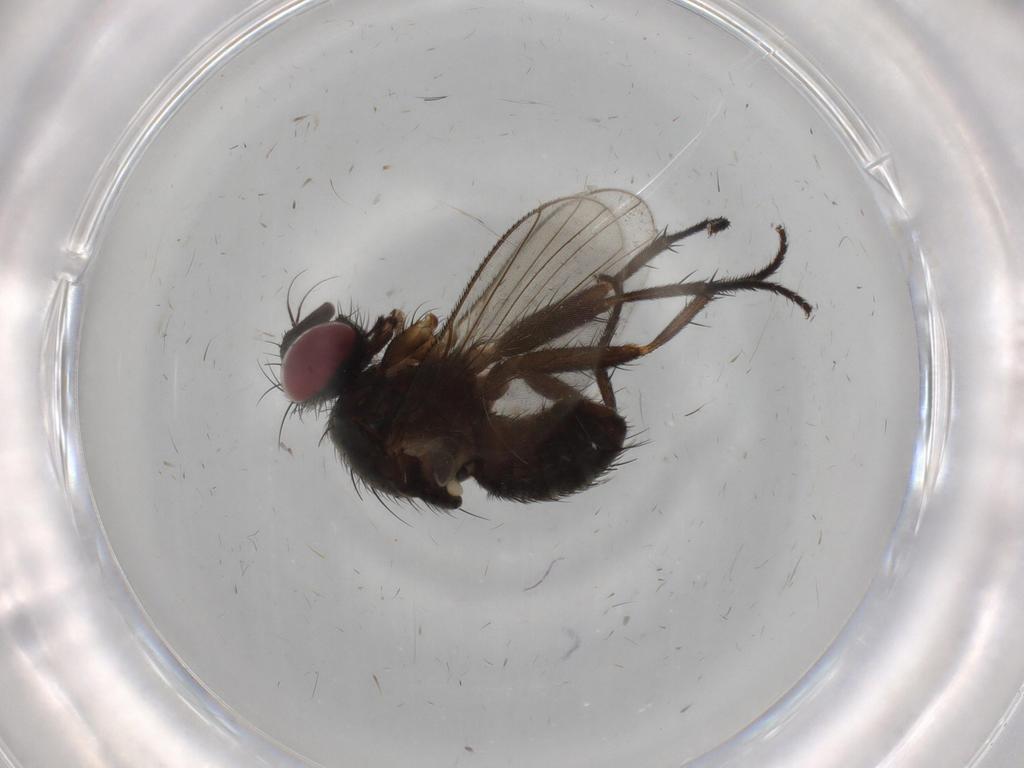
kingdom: Animalia
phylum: Arthropoda
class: Insecta
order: Diptera
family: Muscidae
